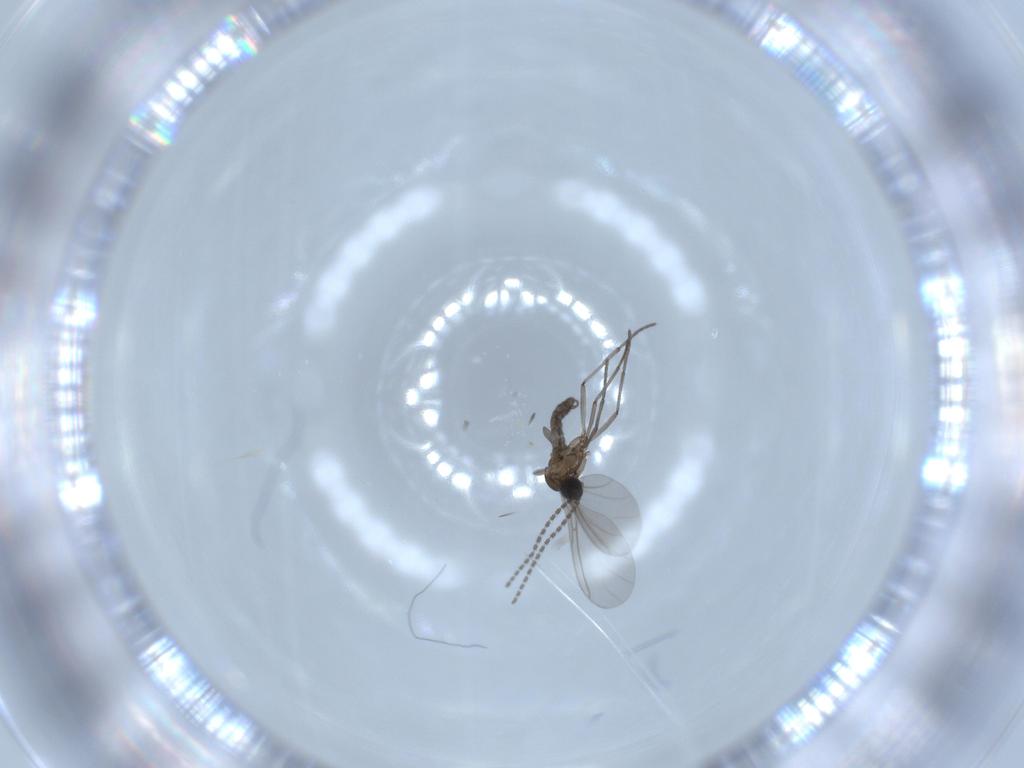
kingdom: Animalia
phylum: Arthropoda
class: Insecta
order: Diptera
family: Sciaridae
